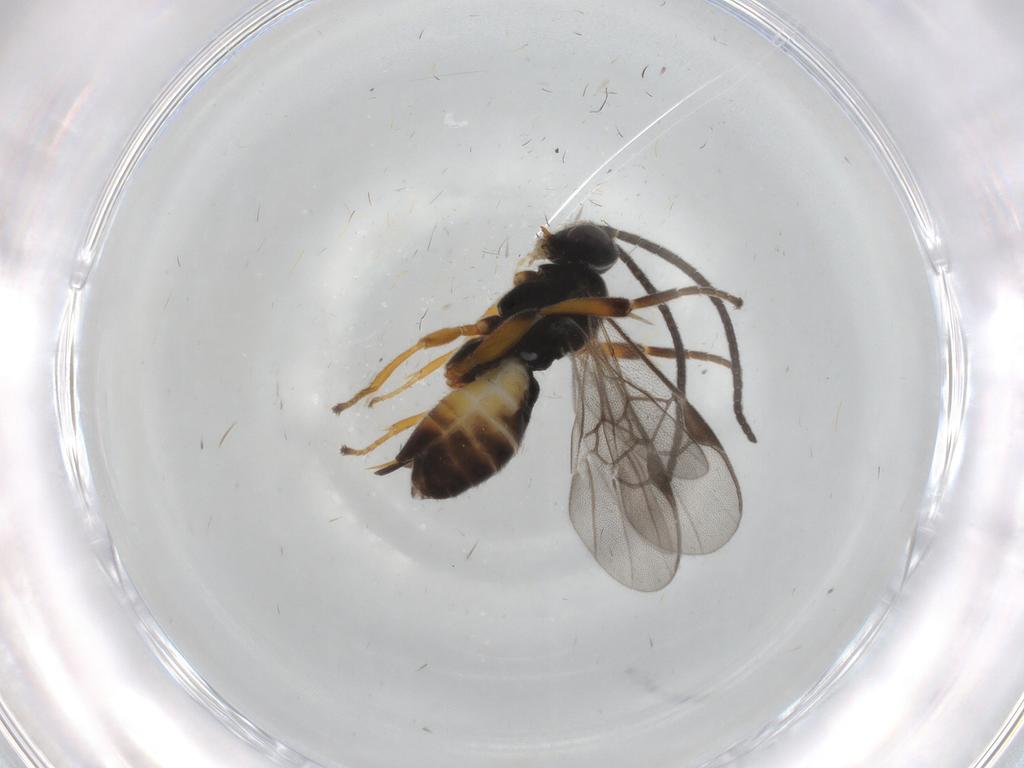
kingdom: Animalia
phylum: Arthropoda
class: Insecta
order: Hymenoptera
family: Braconidae
